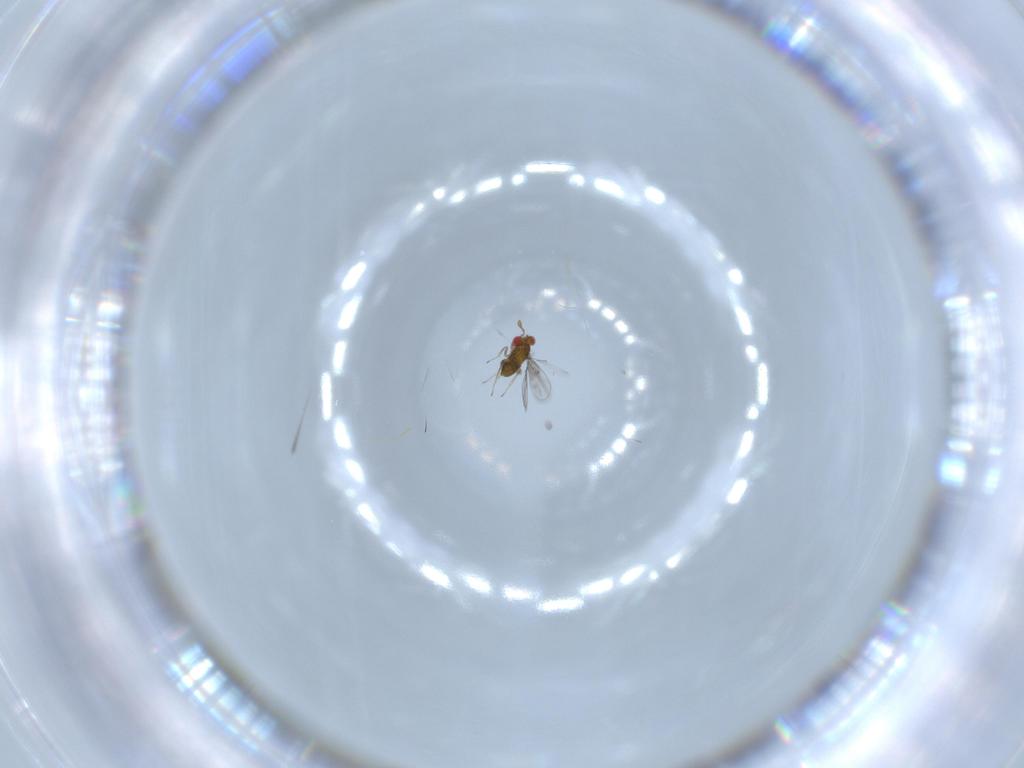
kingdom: Animalia
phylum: Arthropoda
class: Insecta
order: Hymenoptera
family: Trichogrammatidae
